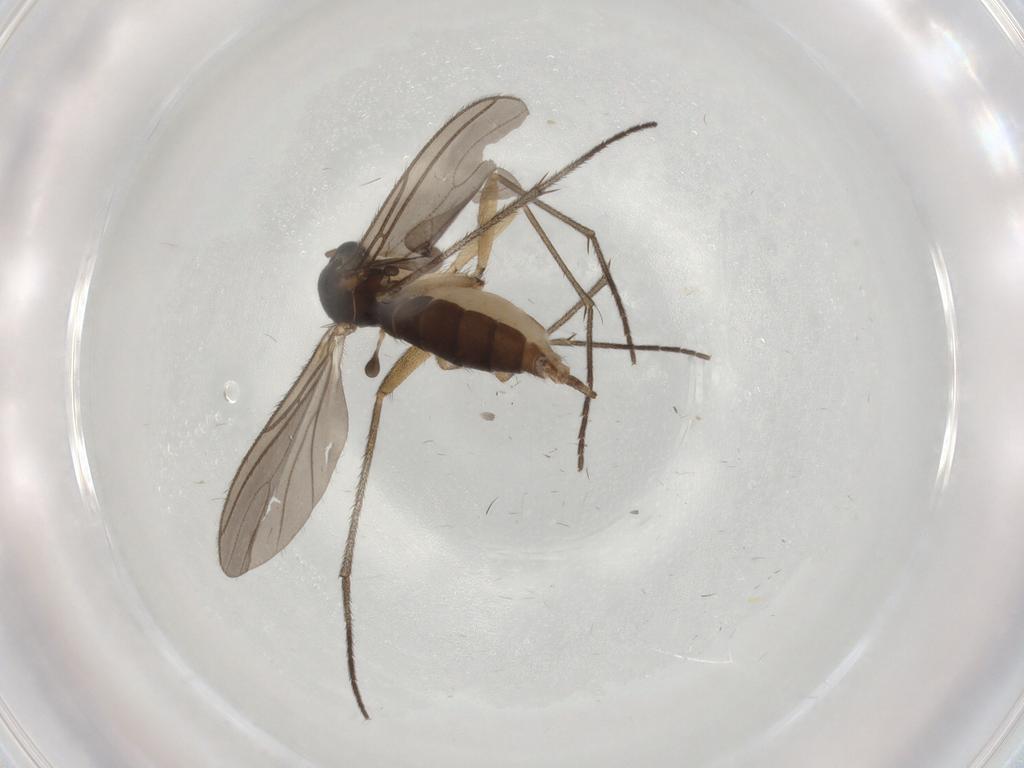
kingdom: Animalia
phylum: Arthropoda
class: Insecta
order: Diptera
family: Sciaridae
